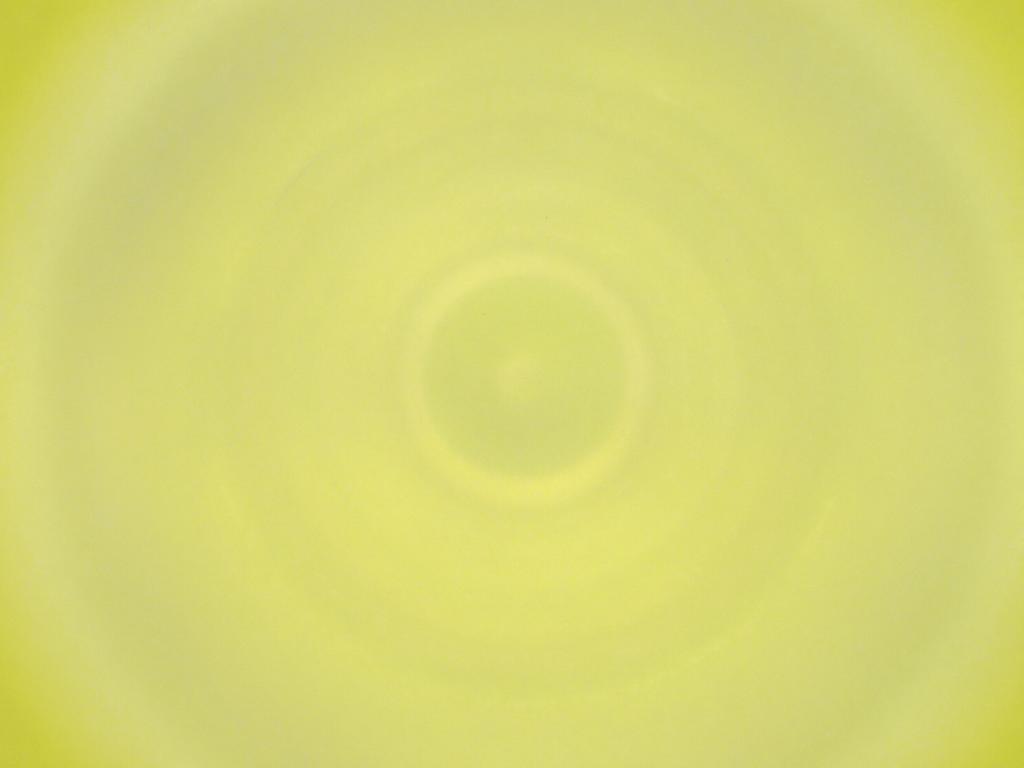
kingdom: Animalia
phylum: Arthropoda
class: Insecta
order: Diptera
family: Cecidomyiidae
